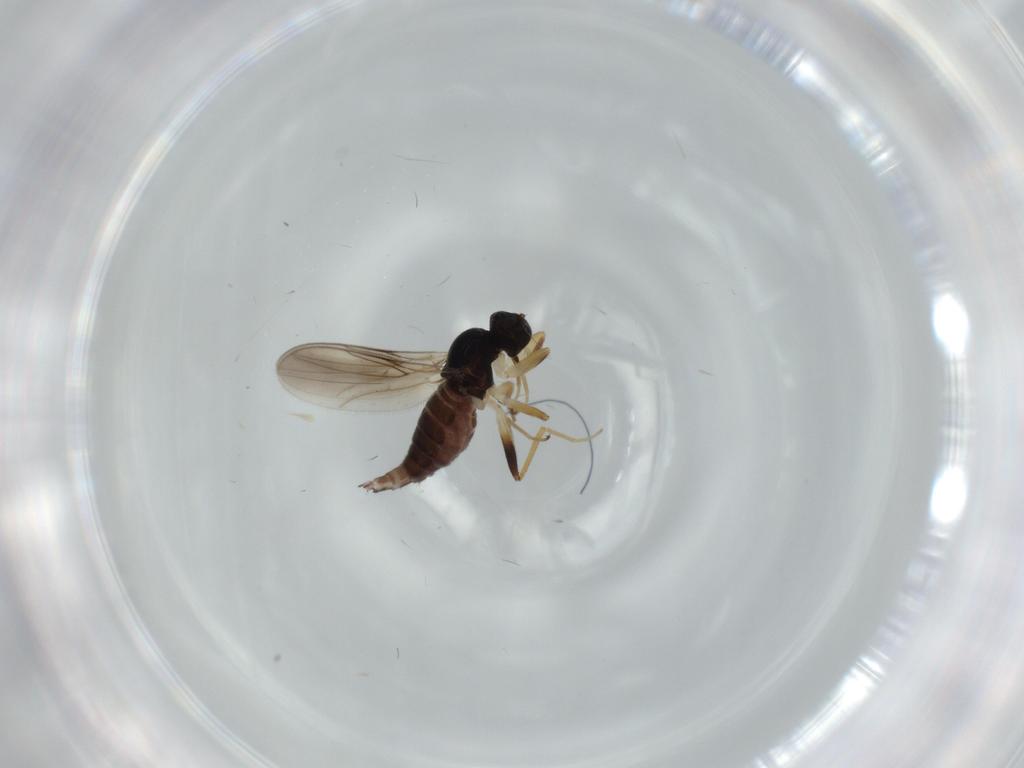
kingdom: Animalia
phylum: Arthropoda
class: Insecta
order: Diptera
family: Hybotidae
